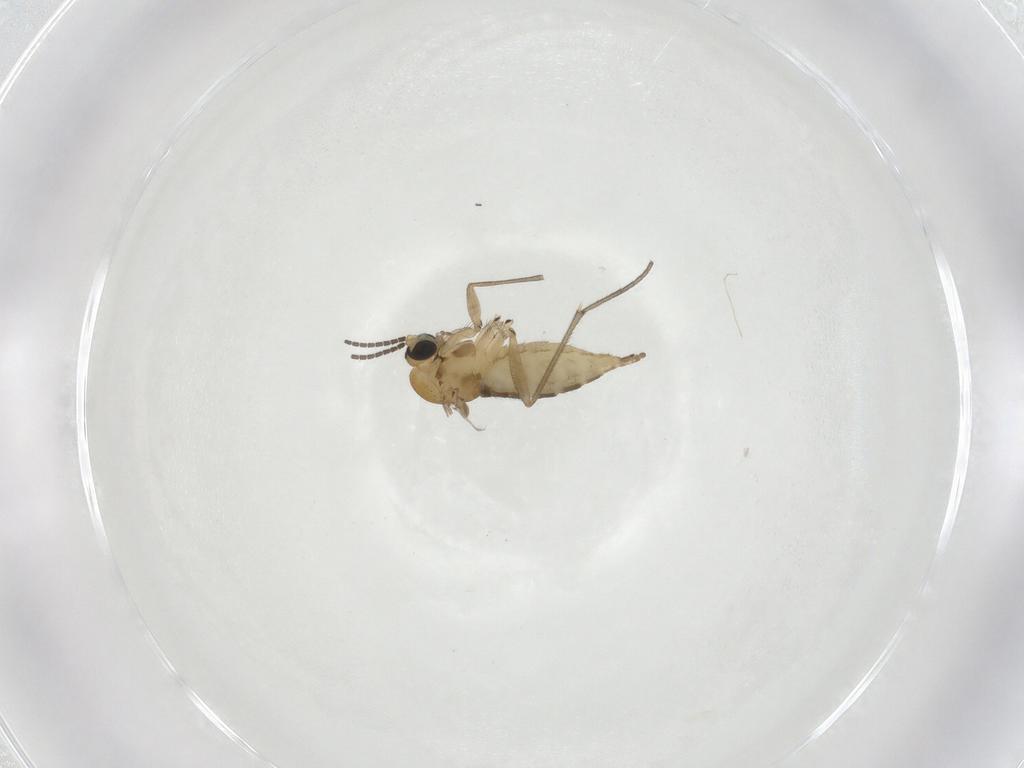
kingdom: Animalia
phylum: Arthropoda
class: Insecta
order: Diptera
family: Sciaridae
